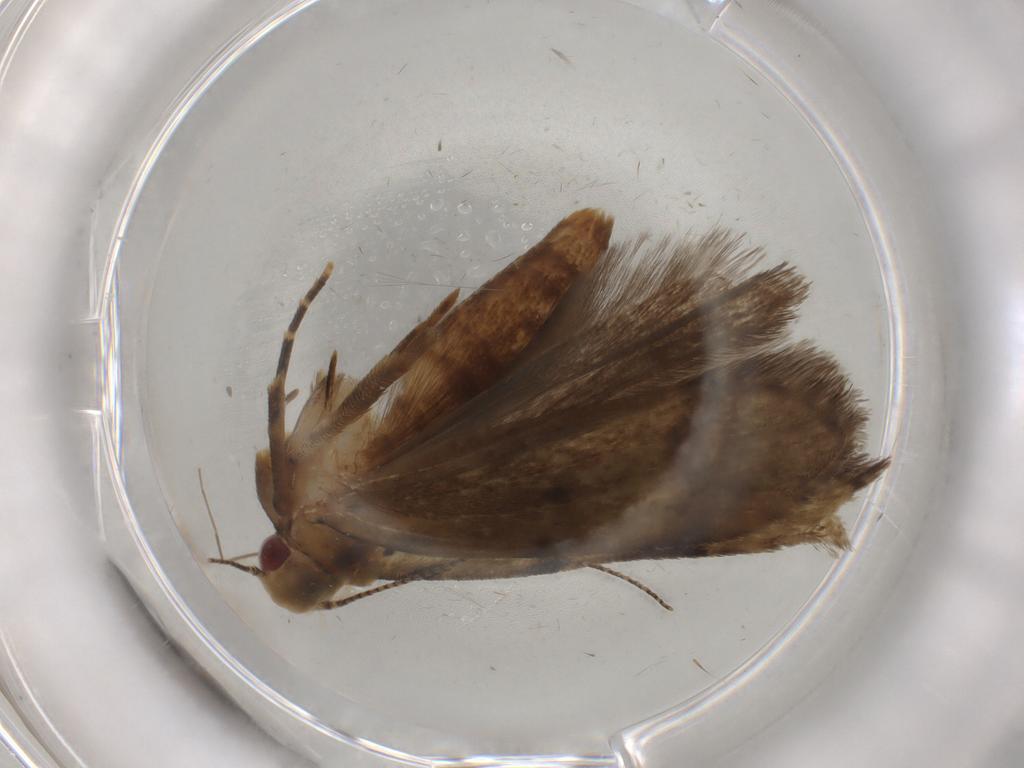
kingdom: Animalia
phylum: Arthropoda
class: Insecta
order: Lepidoptera
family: Gelechiidae
